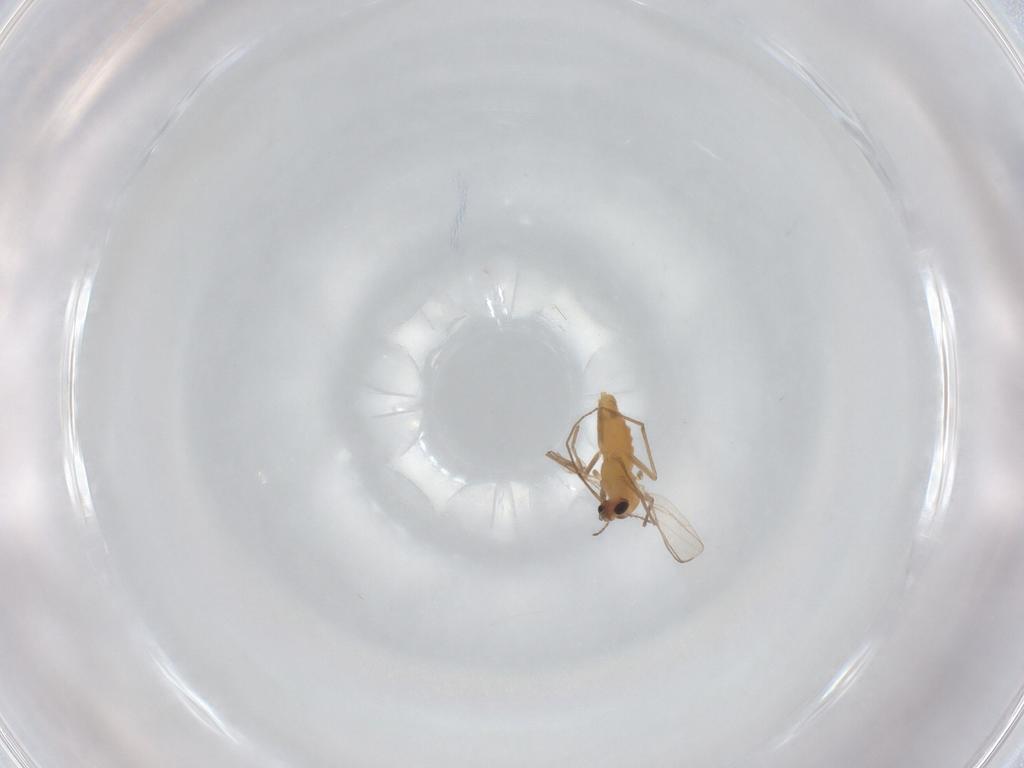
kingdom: Animalia
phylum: Arthropoda
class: Insecta
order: Diptera
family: Chironomidae
